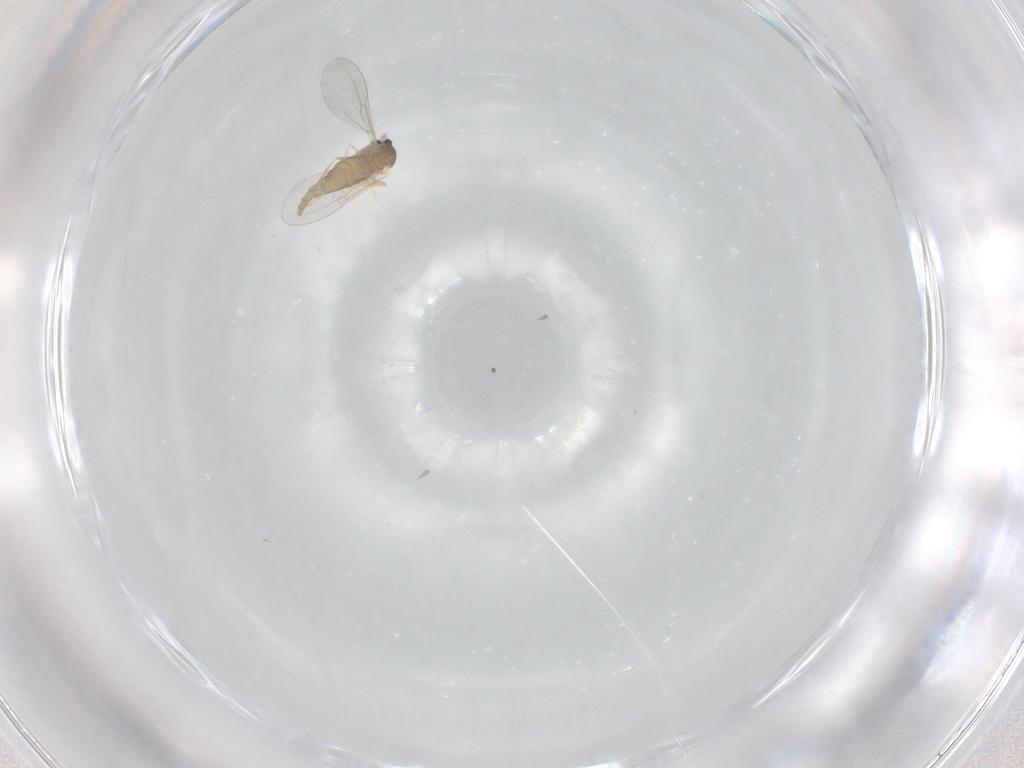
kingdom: Animalia
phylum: Arthropoda
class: Insecta
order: Diptera
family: Cecidomyiidae
